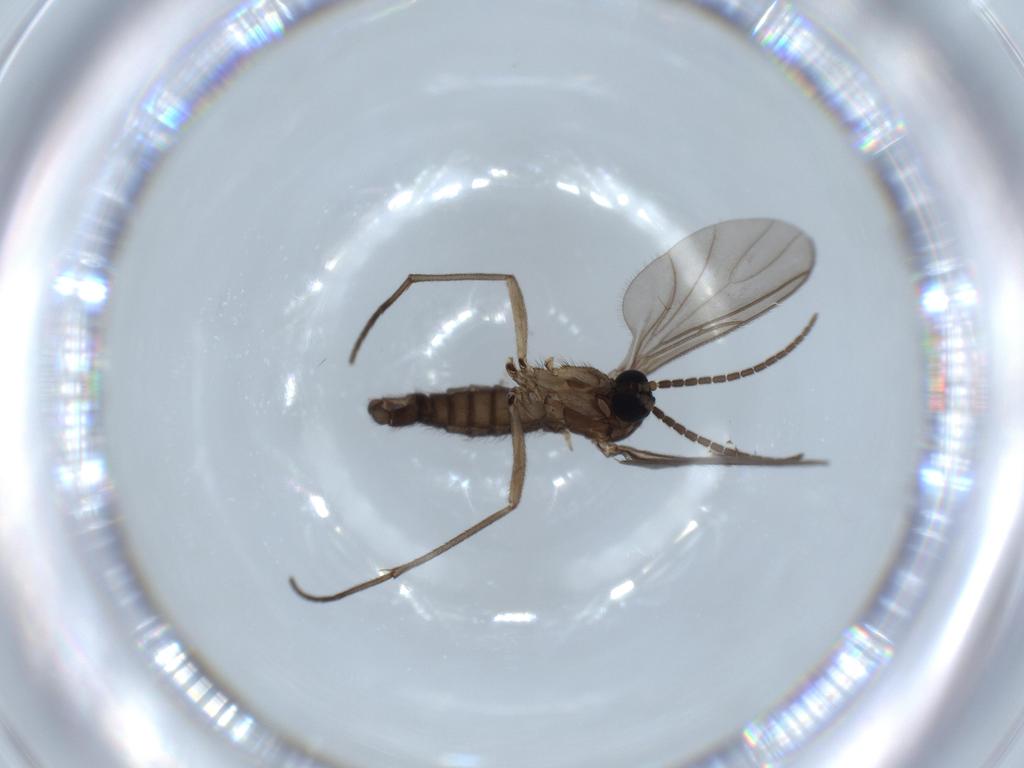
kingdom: Animalia
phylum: Arthropoda
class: Insecta
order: Diptera
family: Sciaridae
